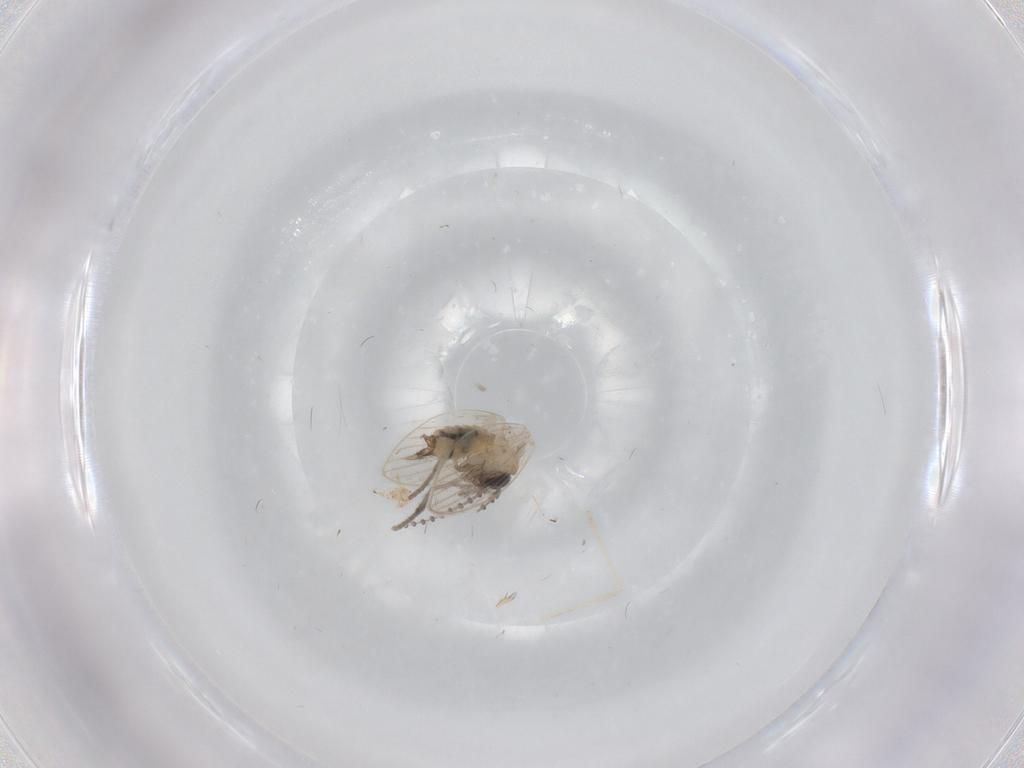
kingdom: Animalia
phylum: Arthropoda
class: Insecta
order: Diptera
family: Psychodidae
